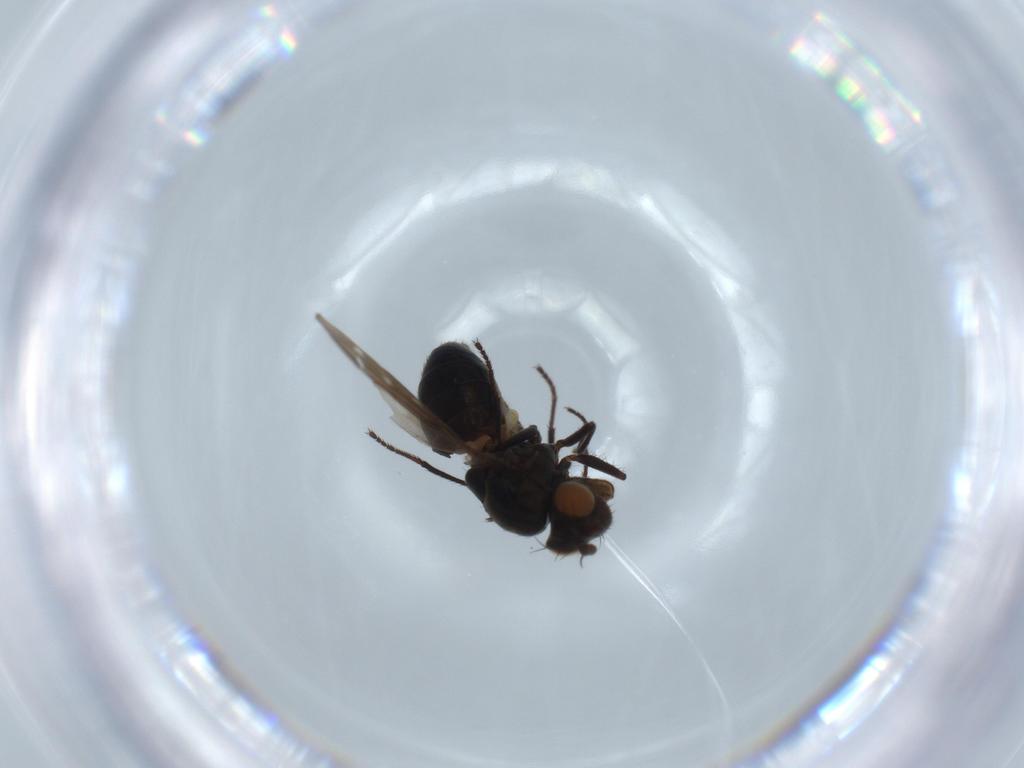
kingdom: Animalia
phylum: Arthropoda
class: Insecta
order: Diptera
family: Ephydridae
